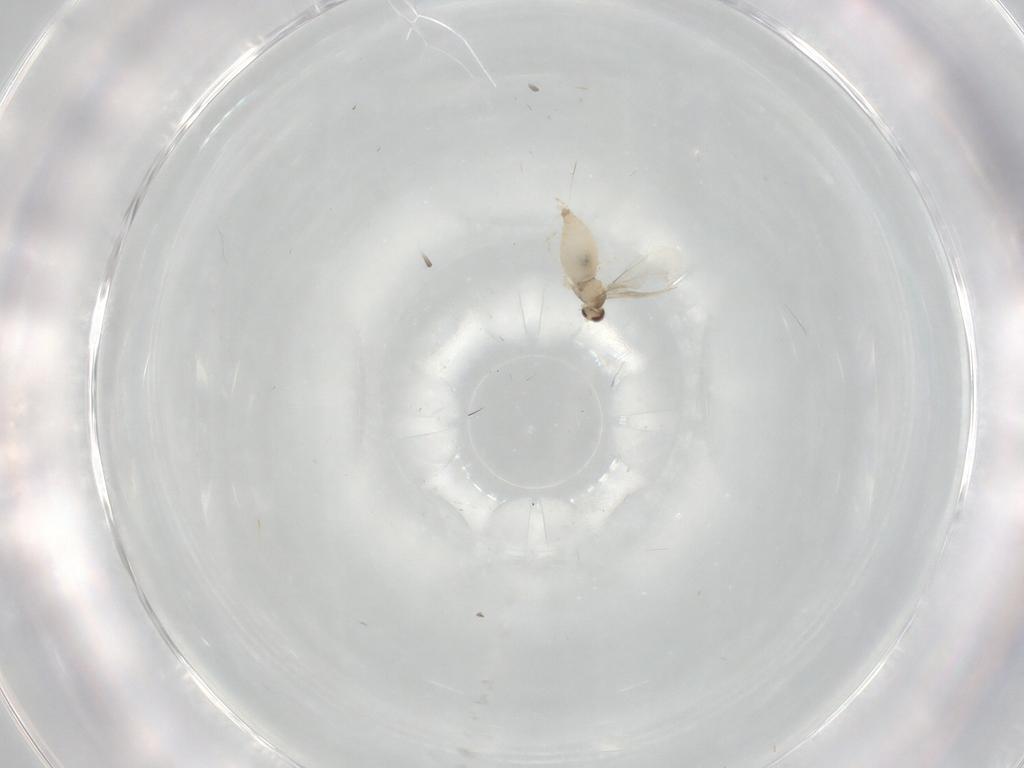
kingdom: Animalia
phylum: Arthropoda
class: Insecta
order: Diptera
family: Cecidomyiidae
